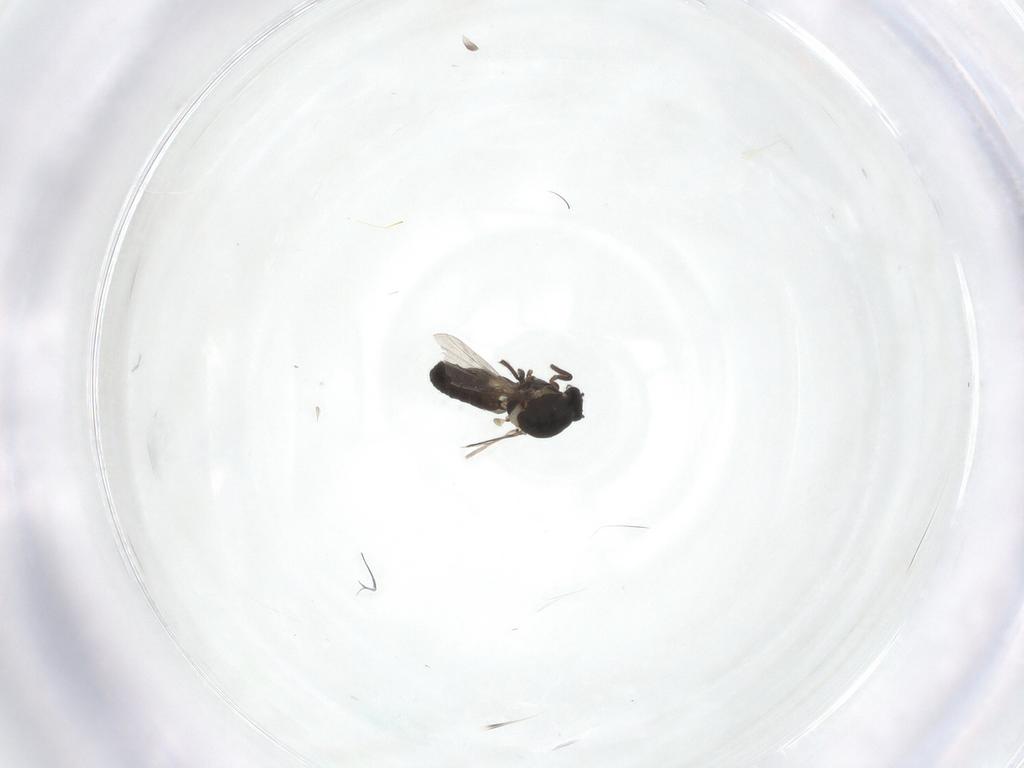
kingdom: Animalia
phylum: Arthropoda
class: Insecta
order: Diptera
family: Ceratopogonidae
